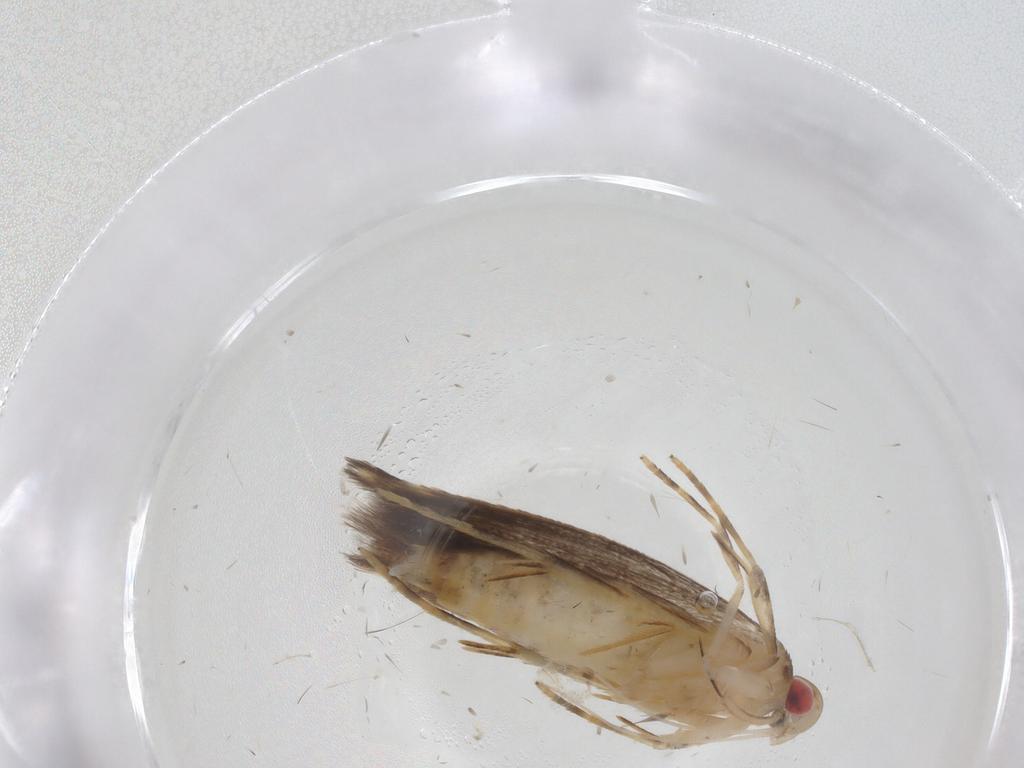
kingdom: Animalia
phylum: Arthropoda
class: Insecta
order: Lepidoptera
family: Cosmopterigidae
